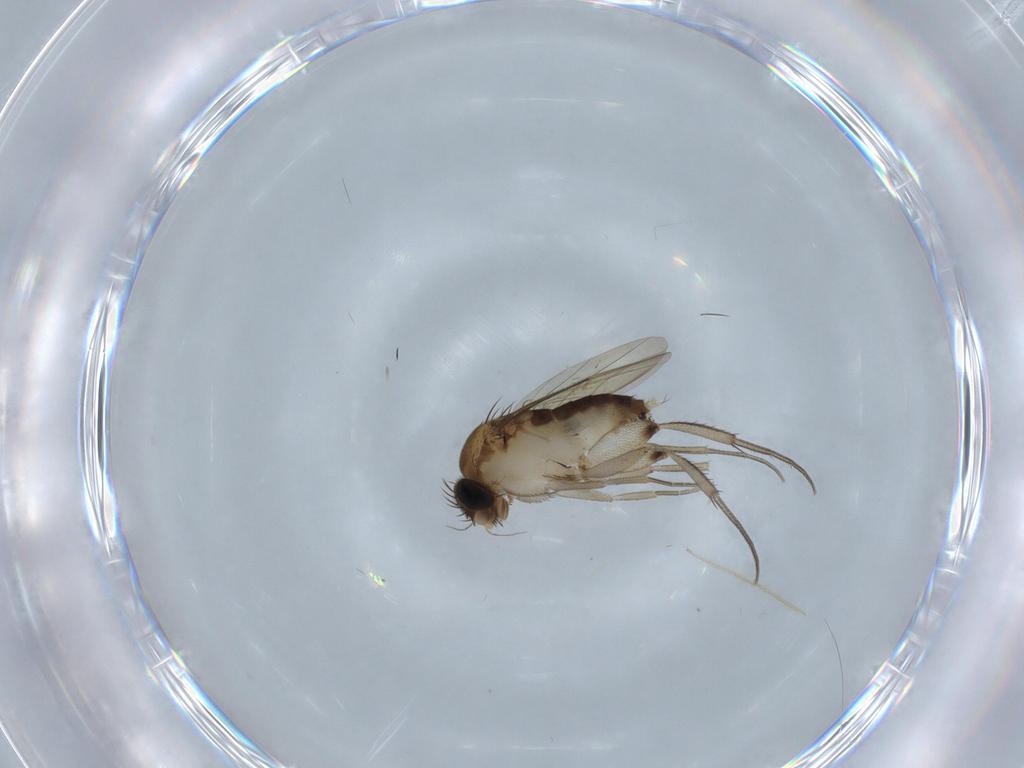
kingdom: Animalia
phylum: Arthropoda
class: Insecta
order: Diptera
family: Phoridae
